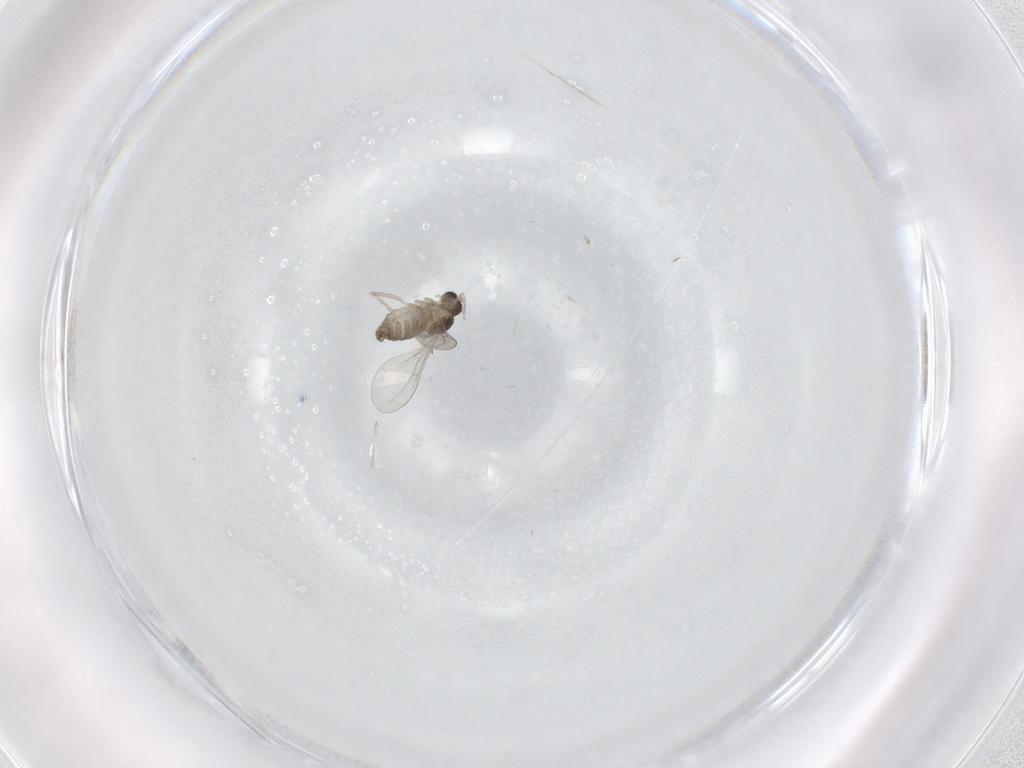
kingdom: Animalia
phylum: Arthropoda
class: Insecta
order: Diptera
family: Cecidomyiidae
